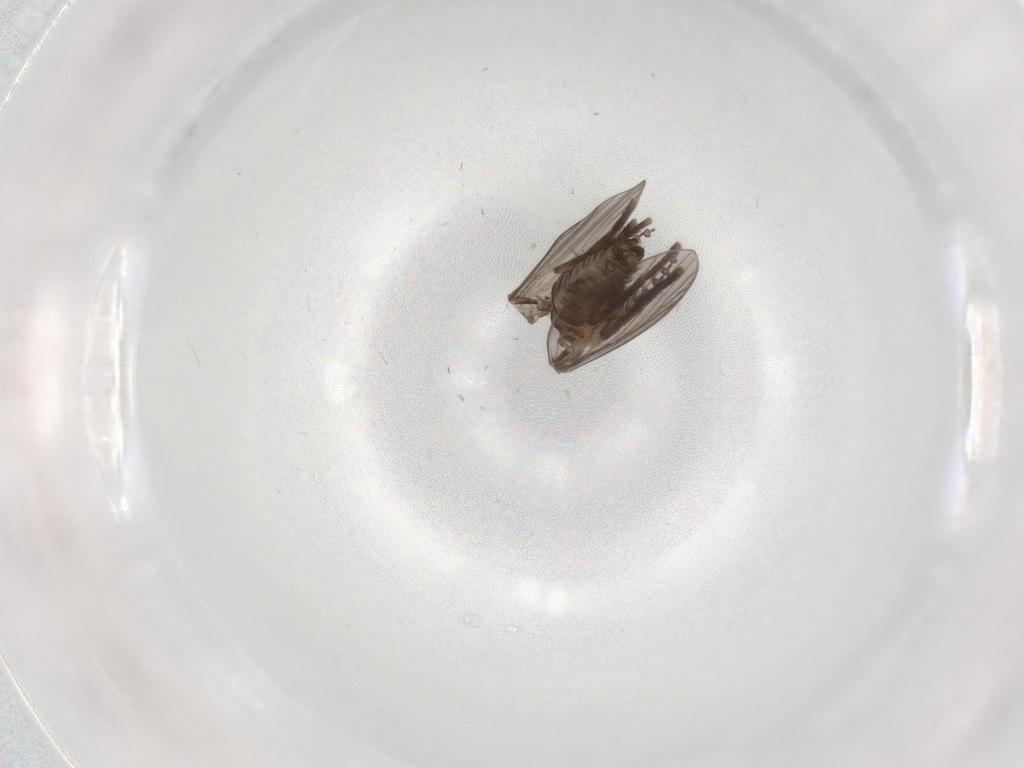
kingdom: Animalia
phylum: Arthropoda
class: Insecta
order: Diptera
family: Psychodidae
